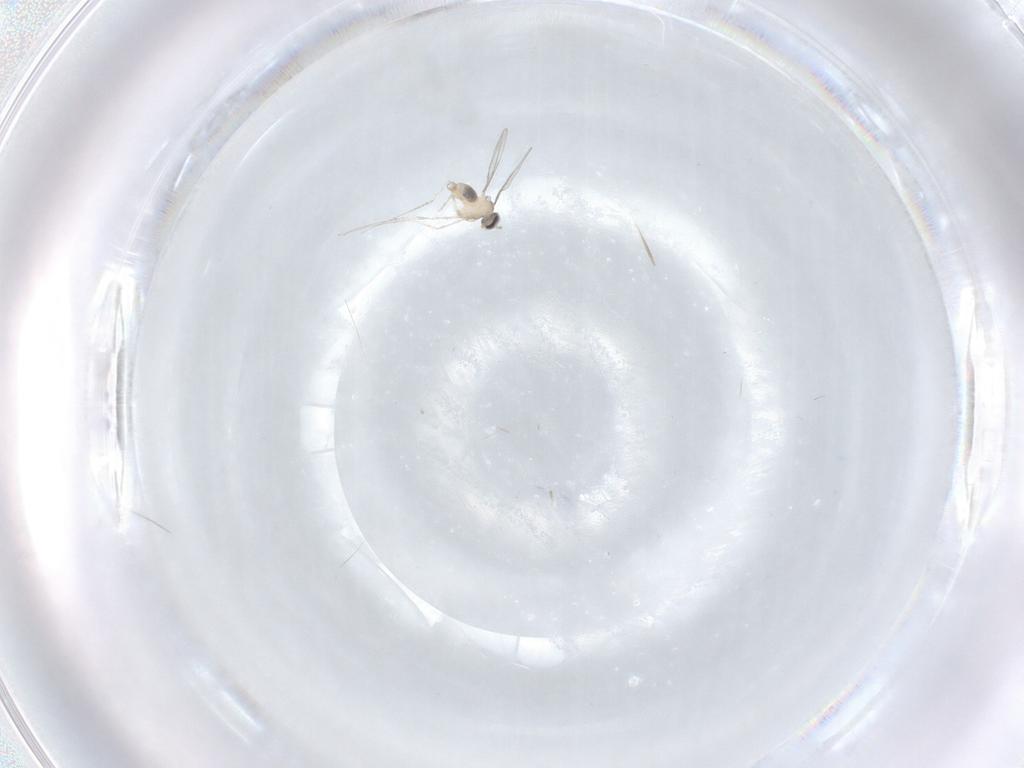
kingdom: Animalia
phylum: Arthropoda
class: Insecta
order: Diptera
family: Cecidomyiidae
